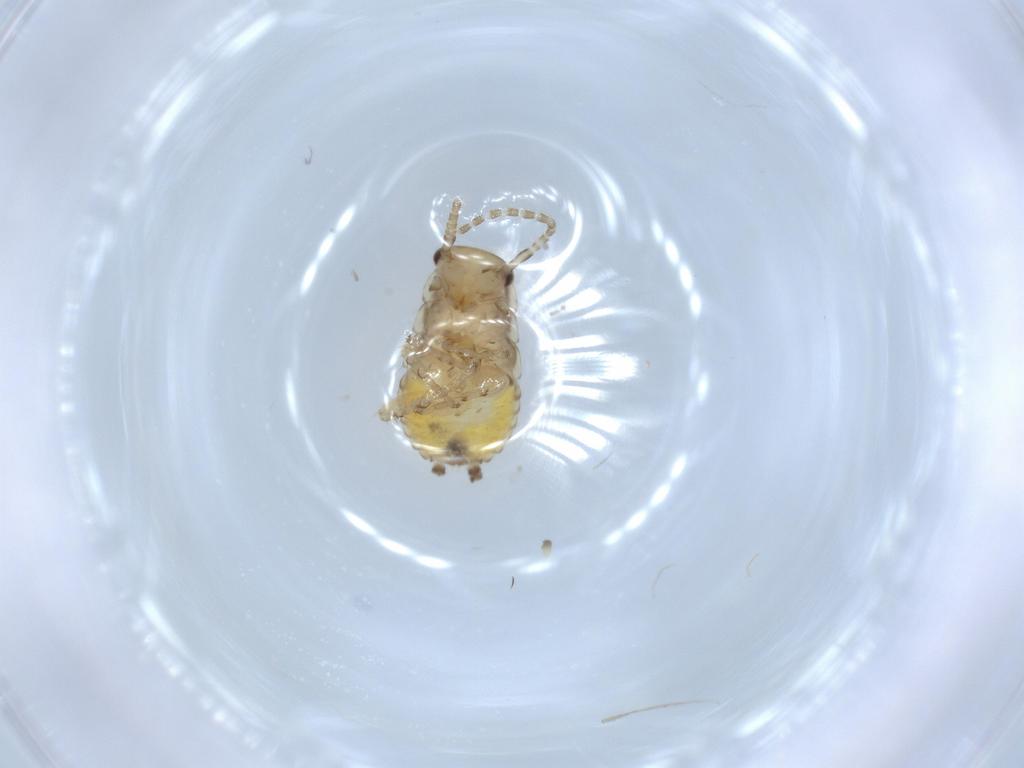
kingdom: Animalia
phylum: Arthropoda
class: Insecta
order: Blattodea
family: Ectobiidae
